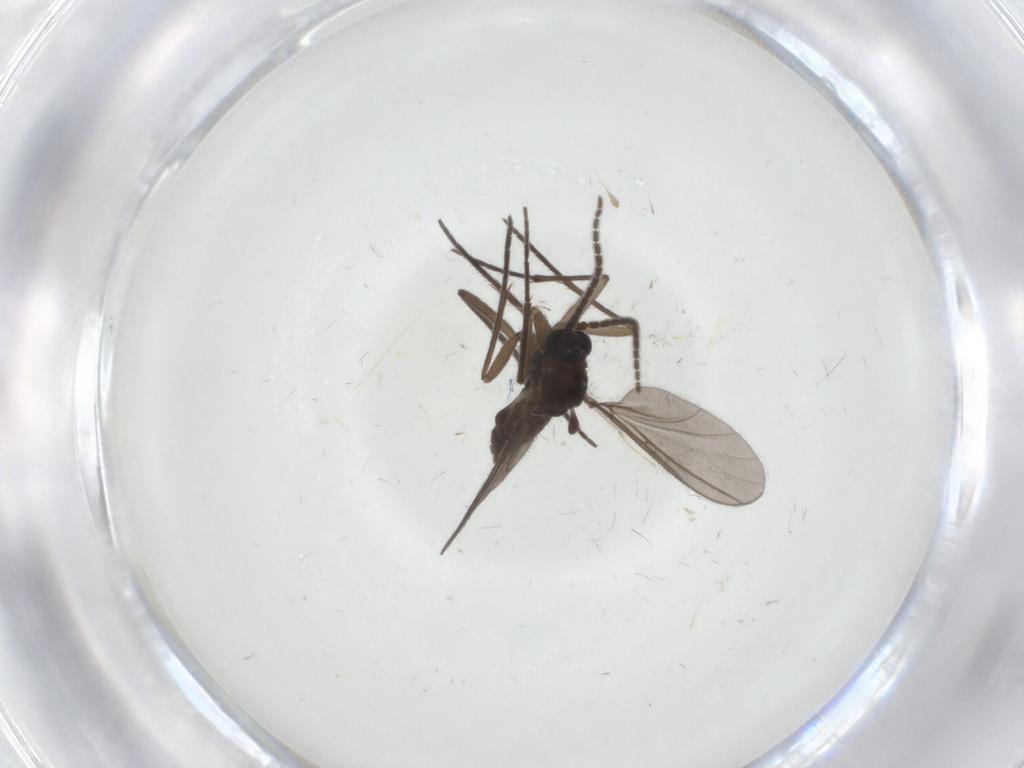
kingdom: Animalia
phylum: Arthropoda
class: Insecta
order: Diptera
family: Sciaridae
